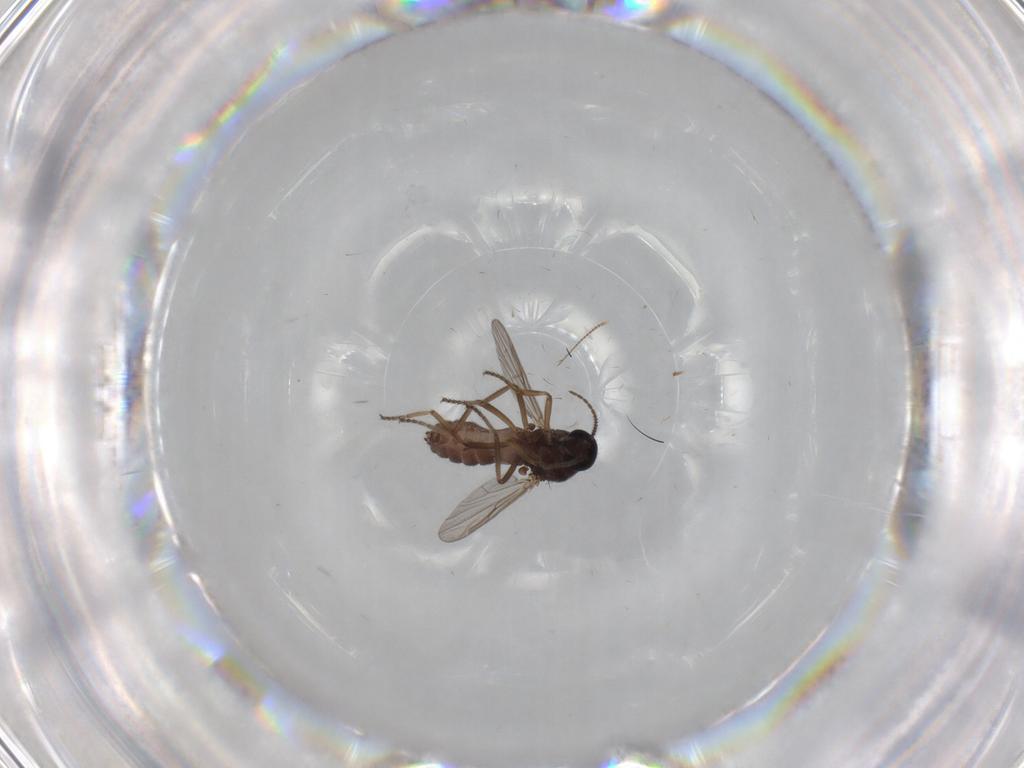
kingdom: Animalia
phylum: Arthropoda
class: Insecta
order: Diptera
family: Ceratopogonidae
